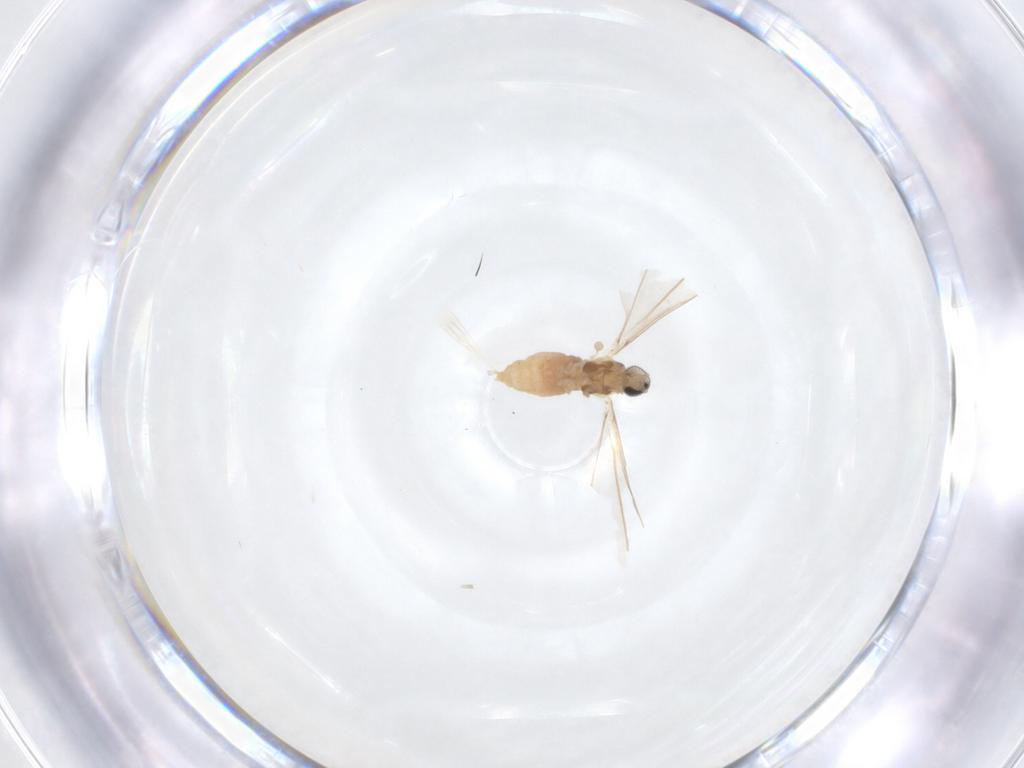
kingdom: Animalia
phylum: Arthropoda
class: Insecta
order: Diptera
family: Cecidomyiidae
